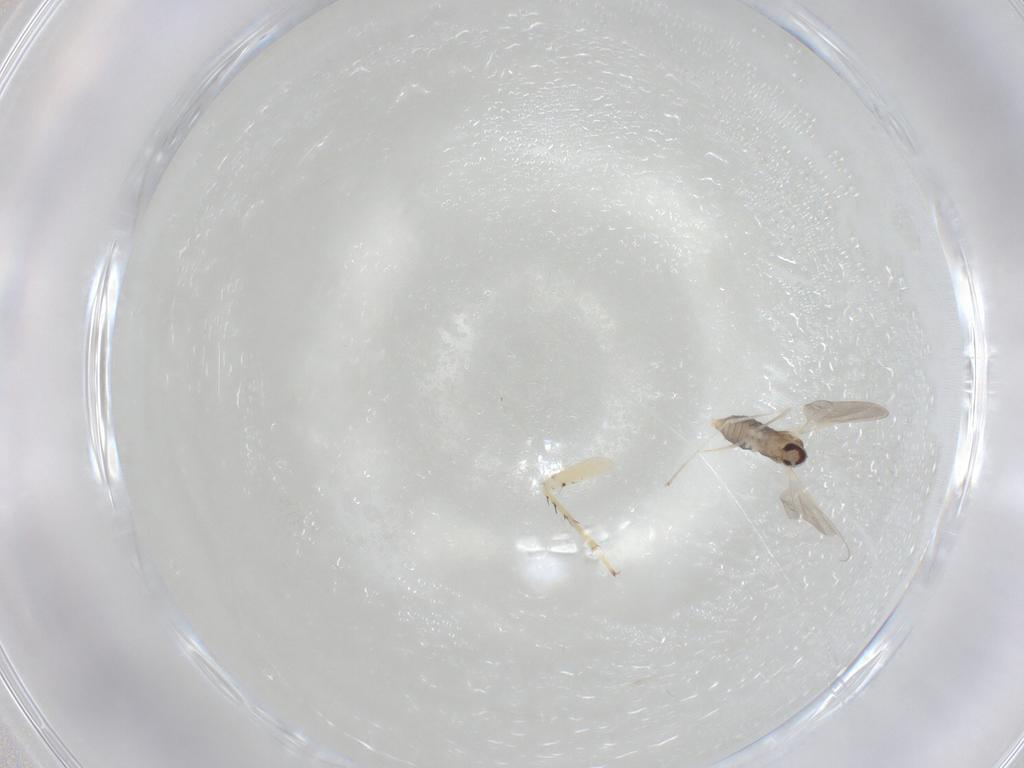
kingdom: Animalia
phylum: Arthropoda
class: Insecta
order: Diptera
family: Cecidomyiidae
